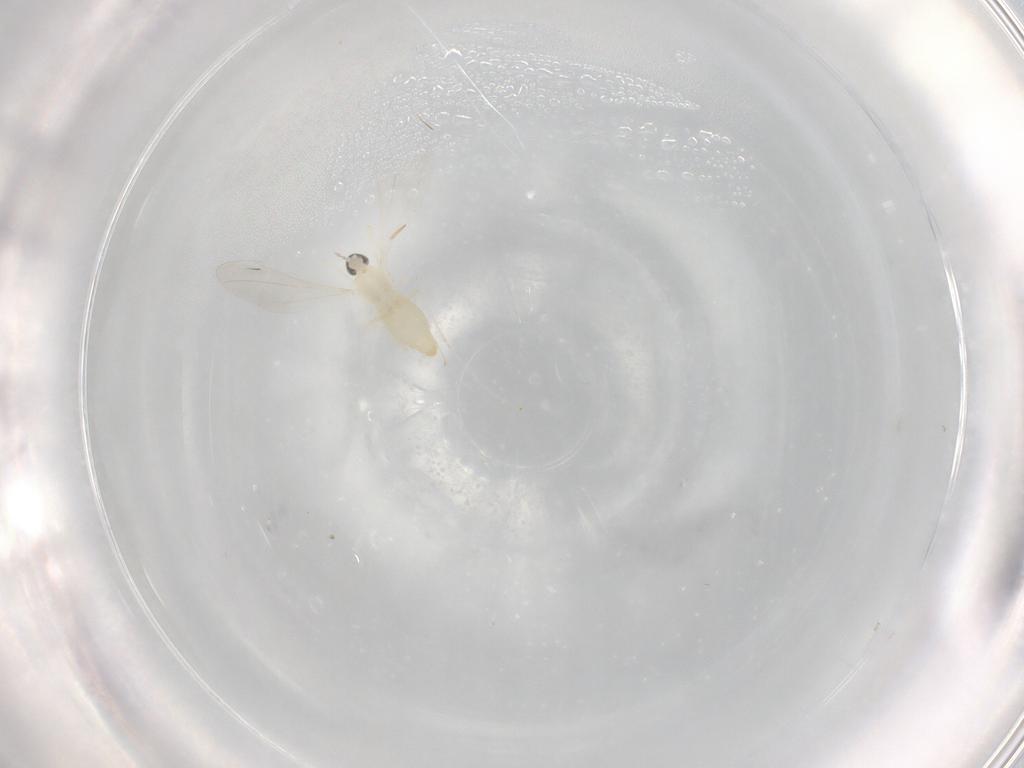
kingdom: Animalia
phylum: Arthropoda
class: Insecta
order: Diptera
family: Cecidomyiidae
